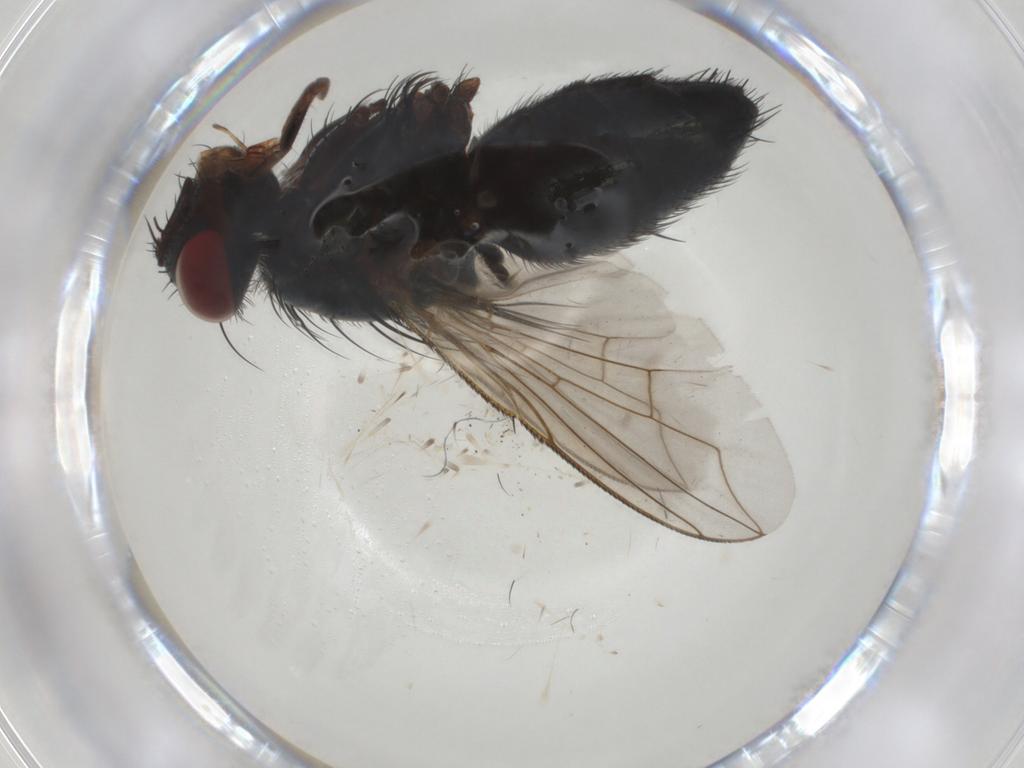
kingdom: Animalia
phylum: Arthropoda
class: Insecta
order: Diptera
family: Tachinidae
